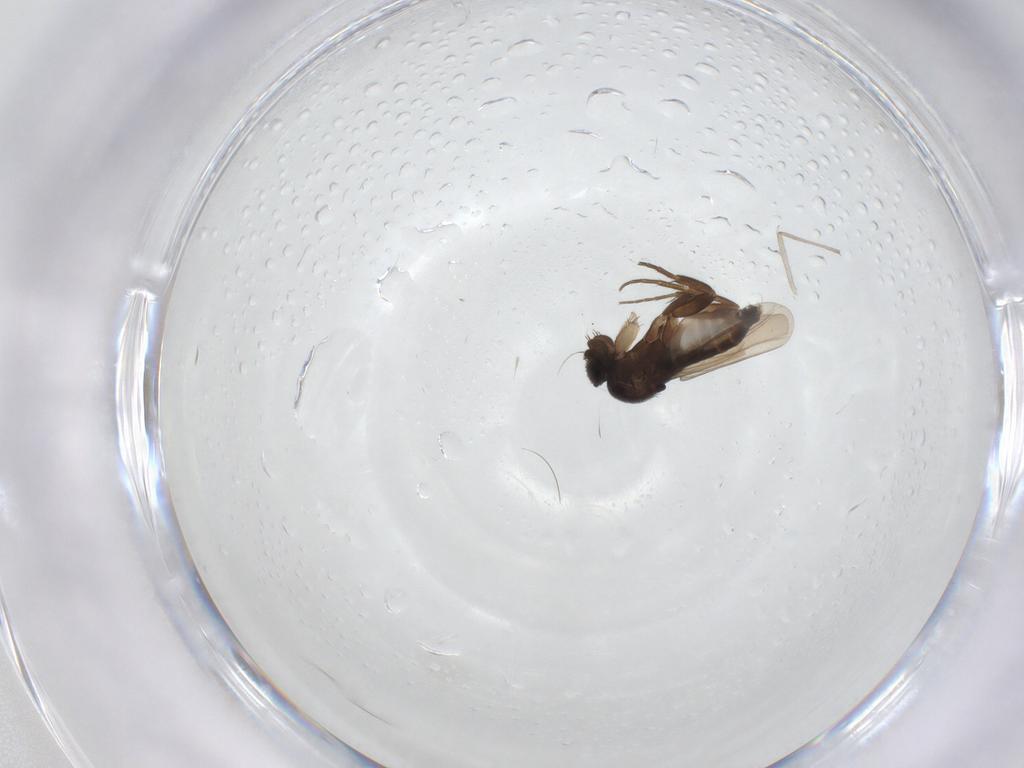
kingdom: Animalia
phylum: Arthropoda
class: Insecta
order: Diptera
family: Phoridae
